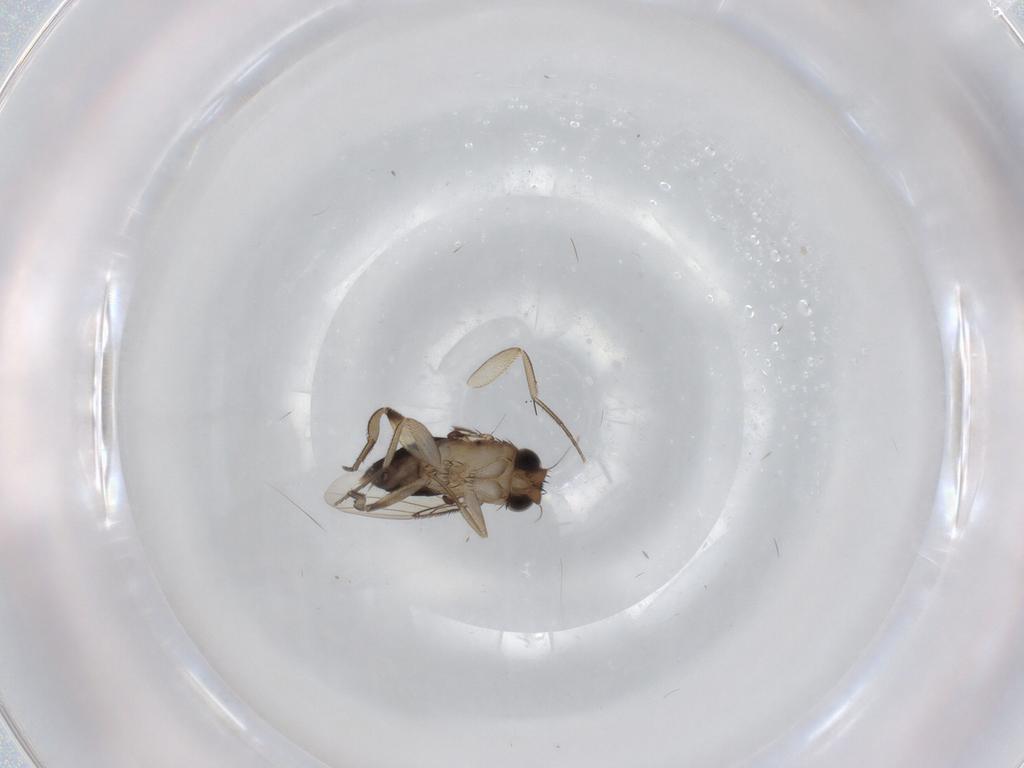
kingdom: Animalia
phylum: Arthropoda
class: Insecta
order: Diptera
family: Phoridae
